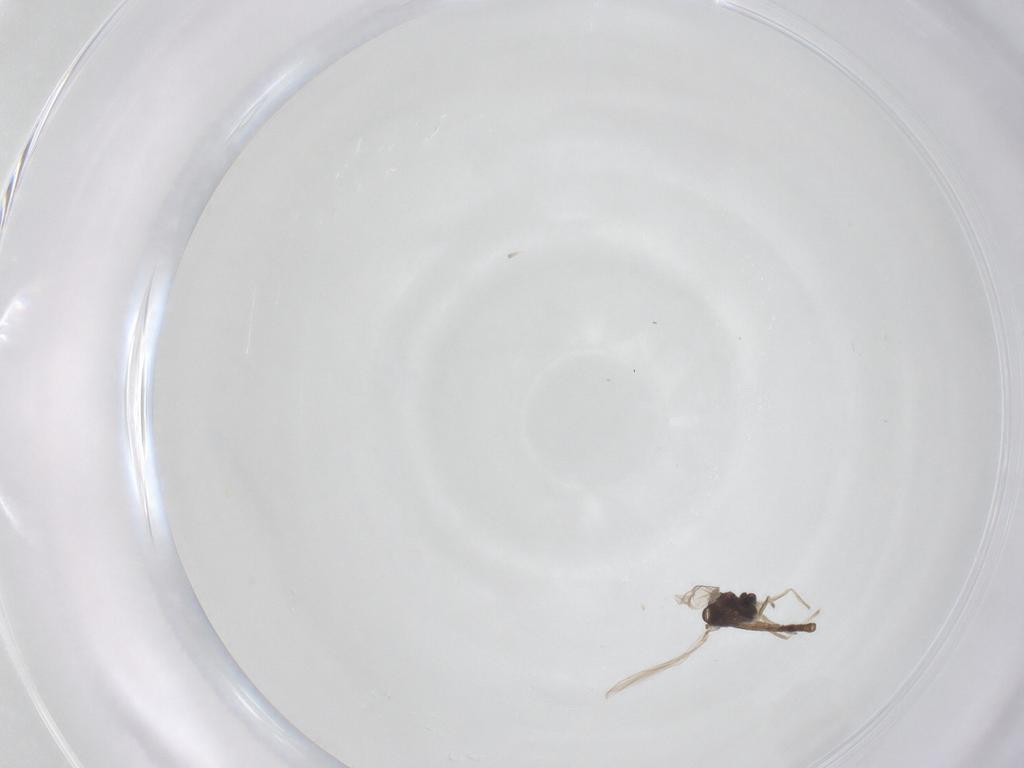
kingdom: Animalia
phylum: Arthropoda
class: Insecta
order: Diptera
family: Chironomidae
